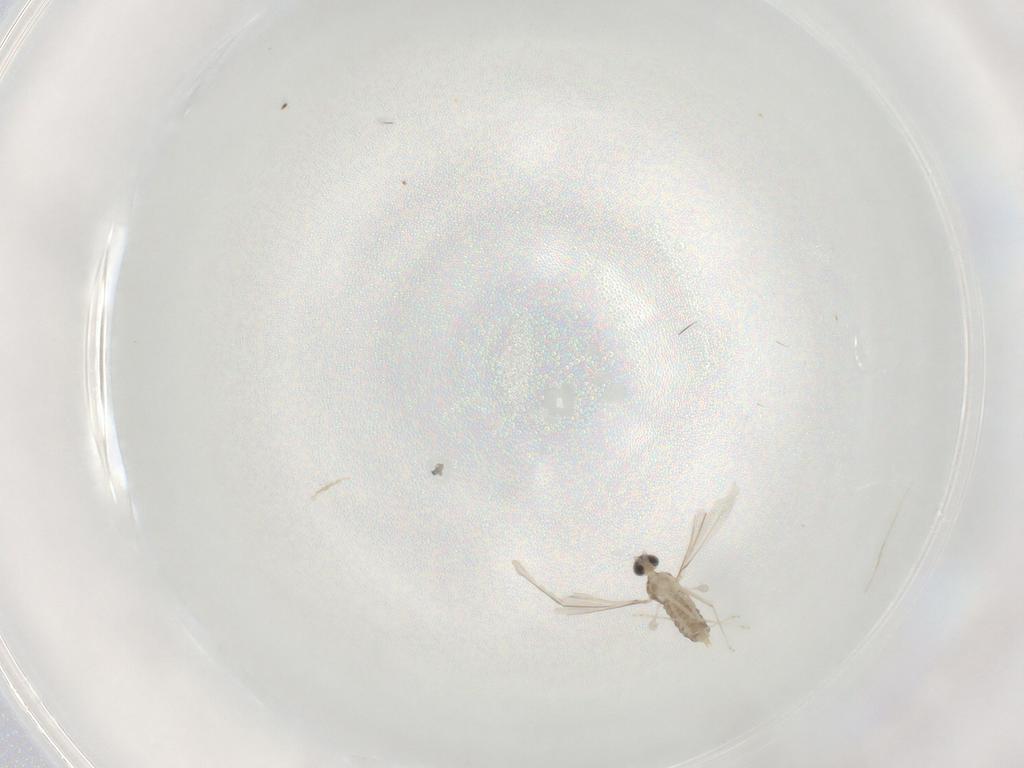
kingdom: Animalia
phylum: Arthropoda
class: Insecta
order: Diptera
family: Cecidomyiidae
